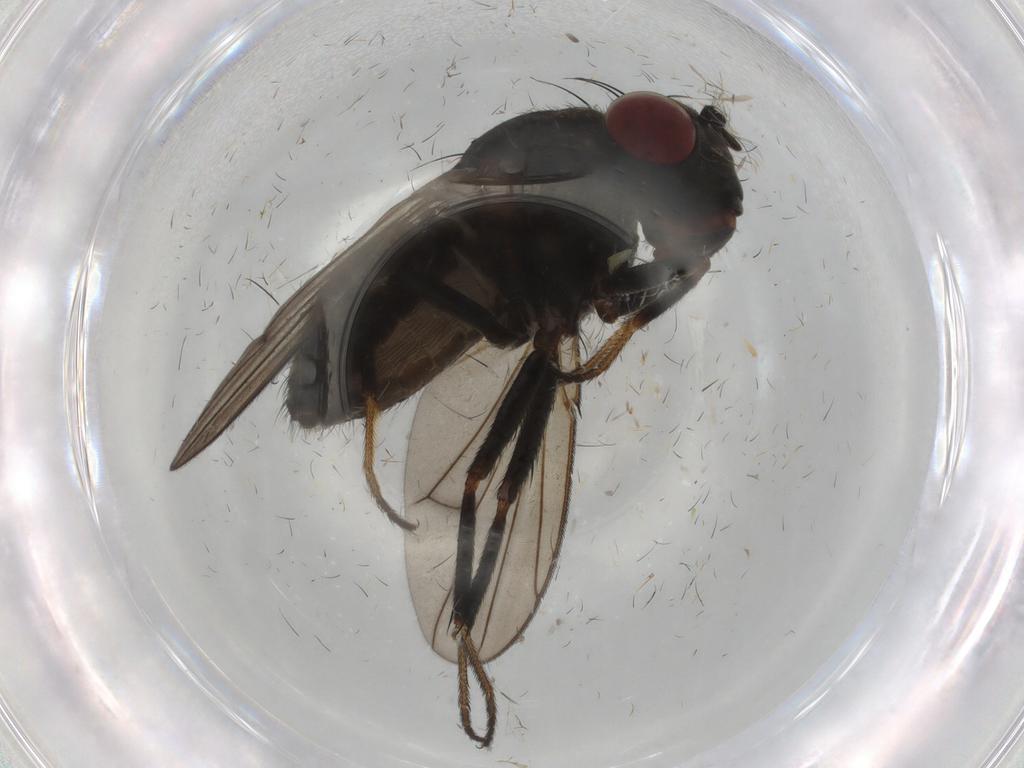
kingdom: Animalia
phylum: Arthropoda
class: Insecta
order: Diptera
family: Ephydridae
